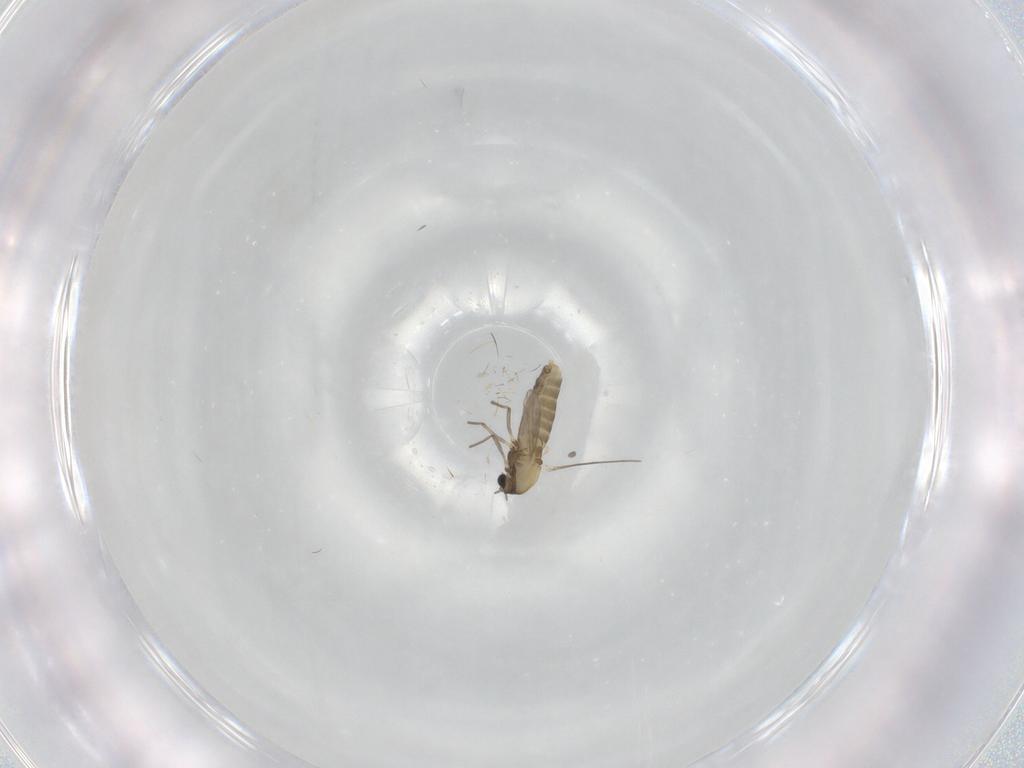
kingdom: Animalia
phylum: Arthropoda
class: Insecta
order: Diptera
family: Chironomidae
